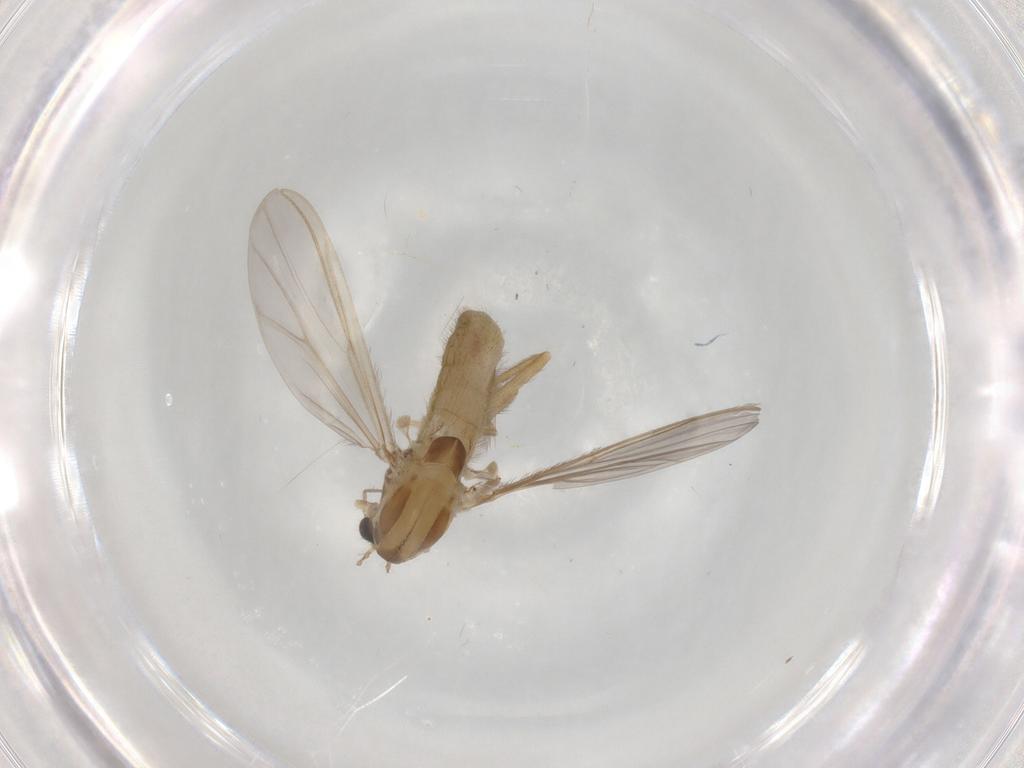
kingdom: Animalia
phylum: Arthropoda
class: Insecta
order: Diptera
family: Chironomidae
